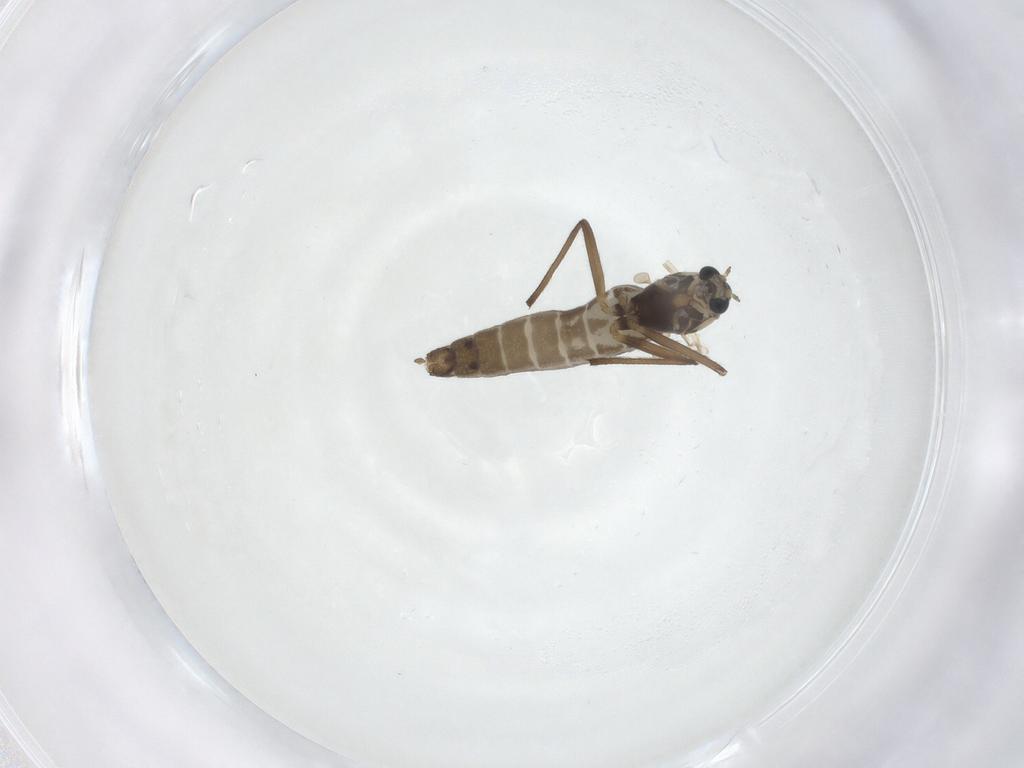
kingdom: Animalia
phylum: Arthropoda
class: Insecta
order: Diptera
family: Chironomidae
